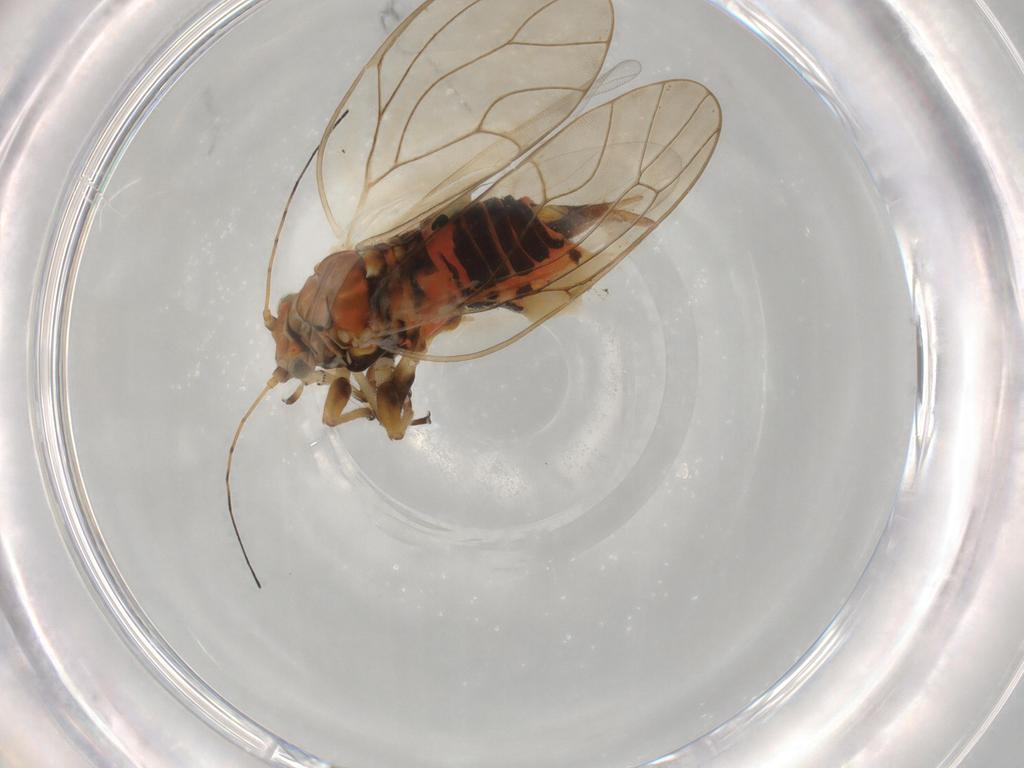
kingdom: Animalia
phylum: Arthropoda
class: Insecta
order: Hemiptera
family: Psyllidae
